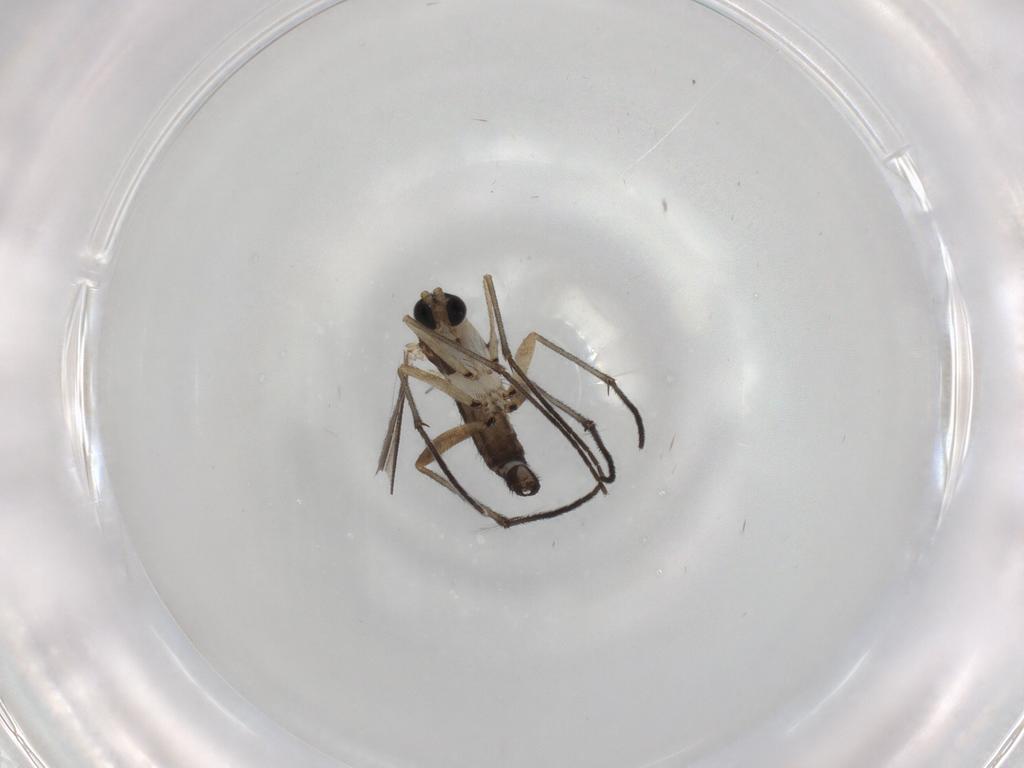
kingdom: Animalia
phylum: Arthropoda
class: Insecta
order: Diptera
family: Sciaridae
